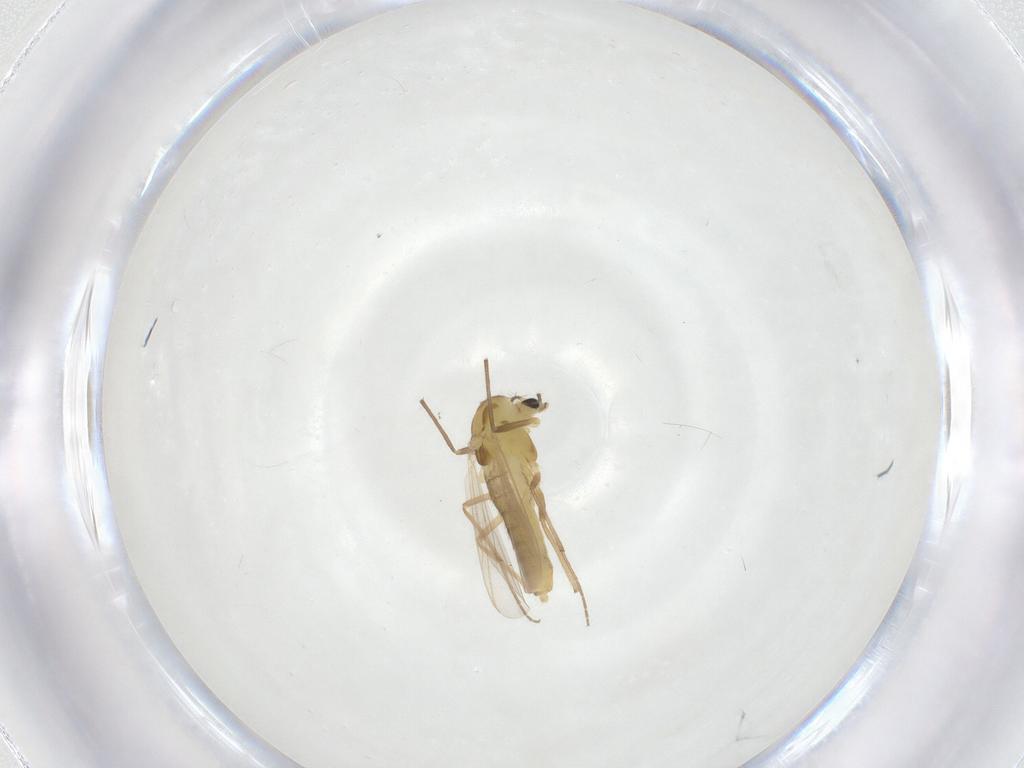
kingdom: Animalia
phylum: Arthropoda
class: Insecta
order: Diptera
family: Chironomidae
